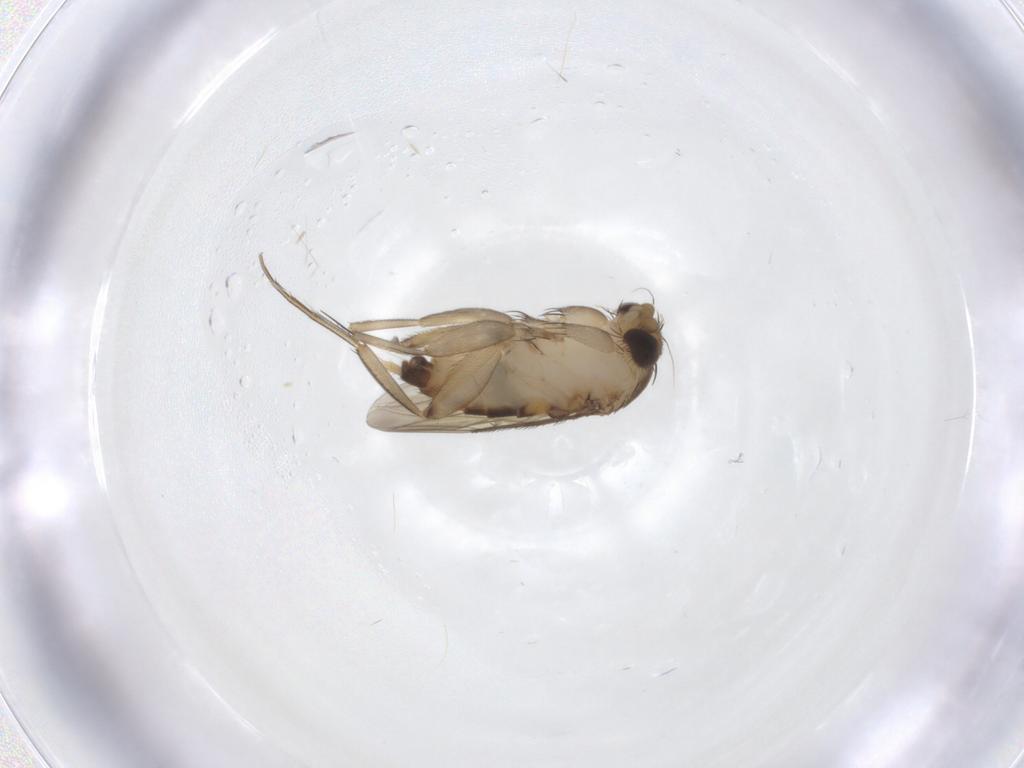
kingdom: Animalia
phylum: Arthropoda
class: Insecta
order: Diptera
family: Phoridae
